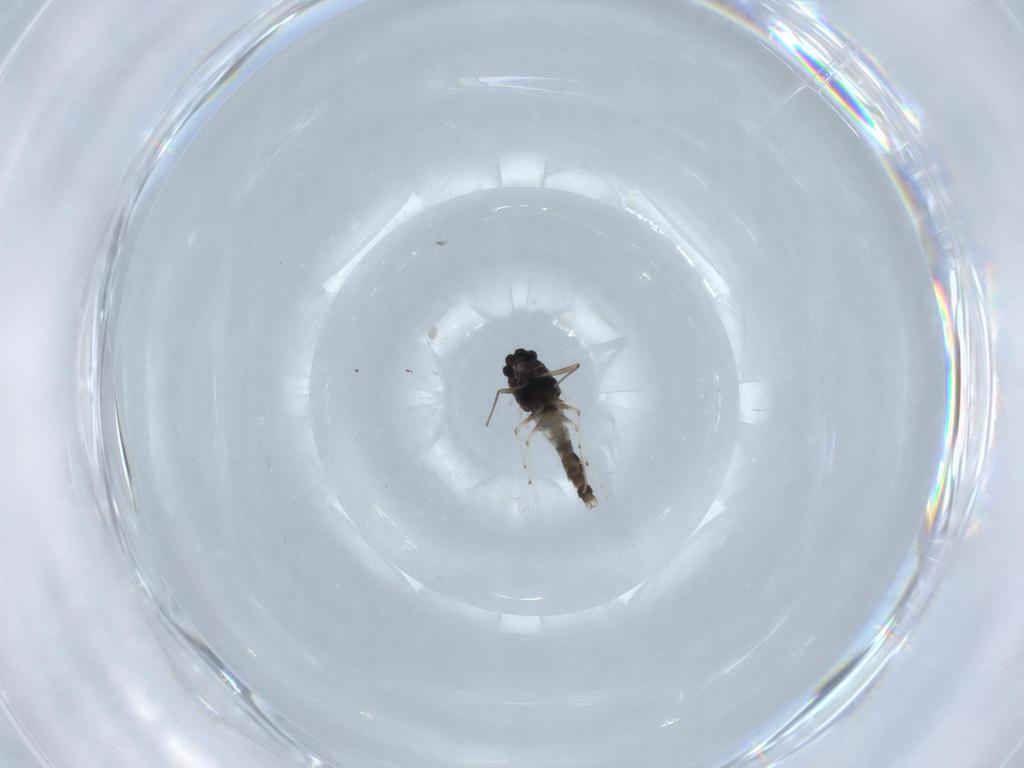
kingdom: Animalia
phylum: Arthropoda
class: Insecta
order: Diptera
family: Chironomidae
